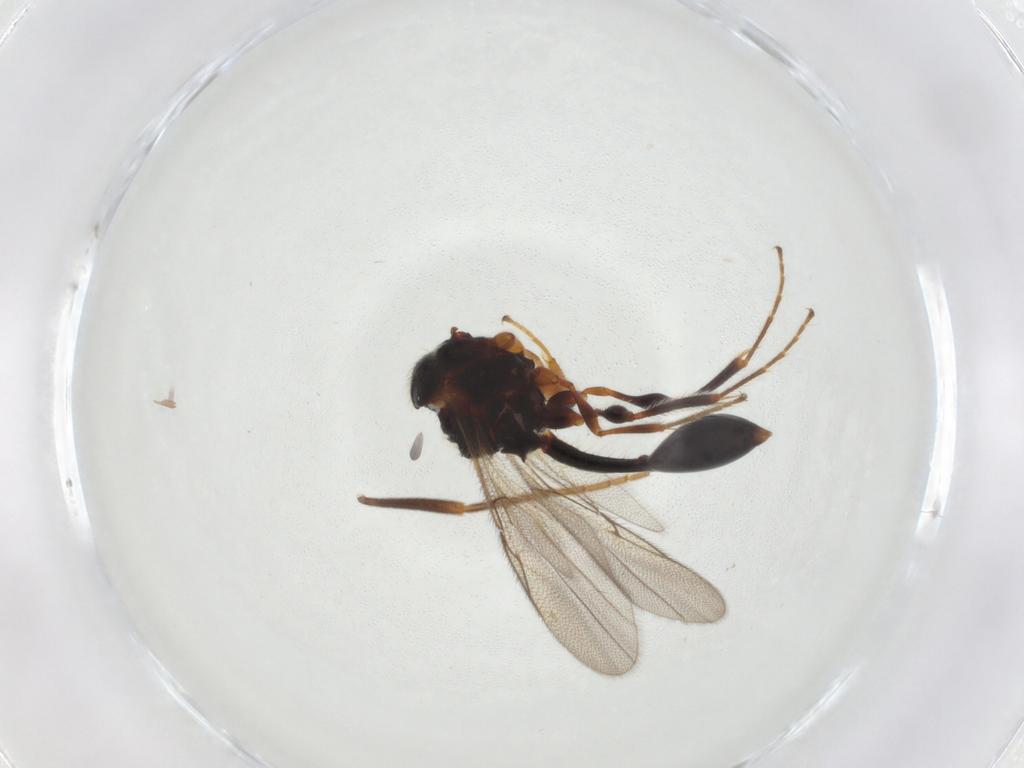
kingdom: Animalia
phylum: Arthropoda
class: Insecta
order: Hymenoptera
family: Diapriidae
